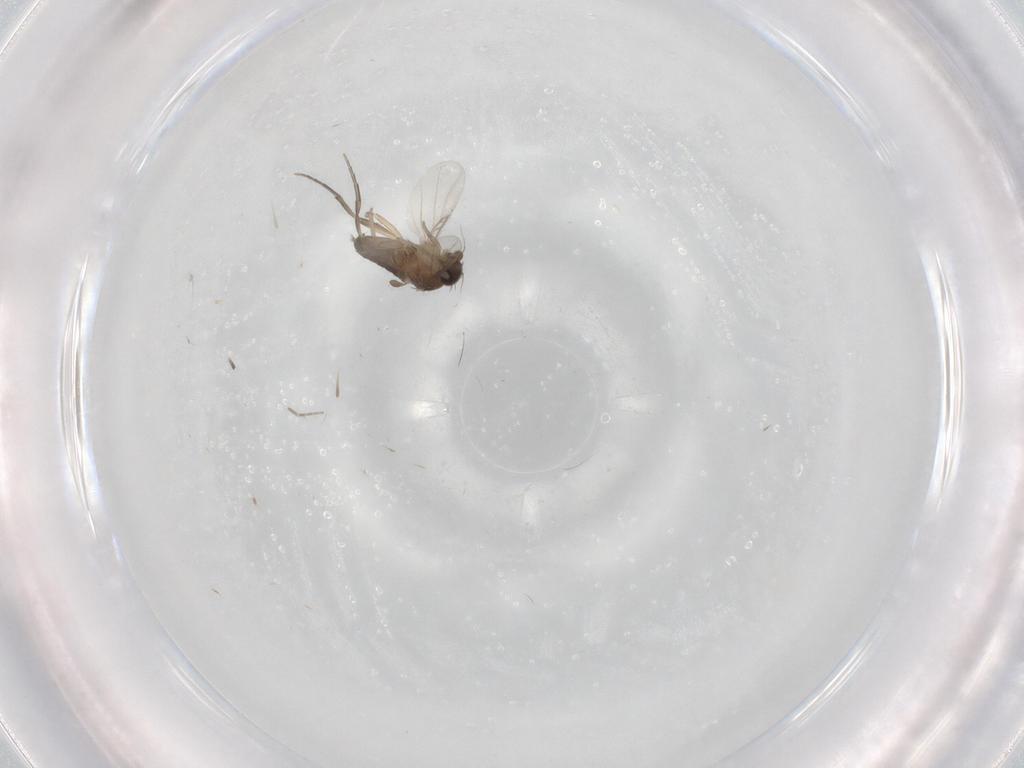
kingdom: Animalia
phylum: Arthropoda
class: Insecta
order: Diptera
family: Phoridae
